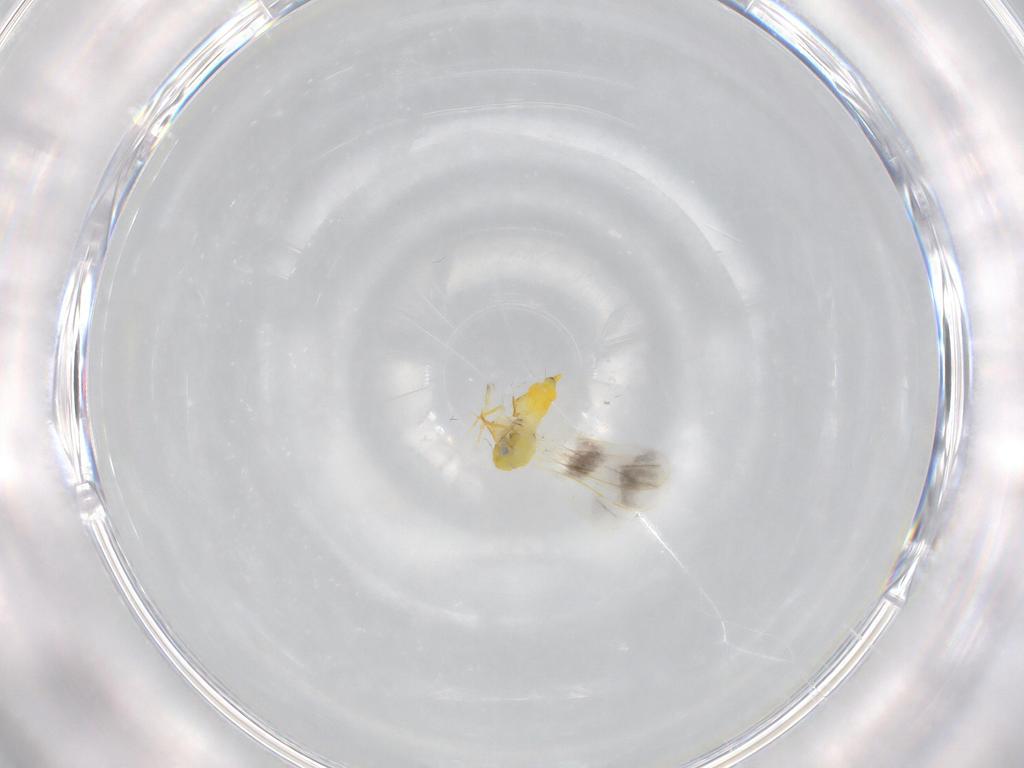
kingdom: Animalia
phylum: Arthropoda
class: Insecta
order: Hemiptera
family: Aleyrodidae
